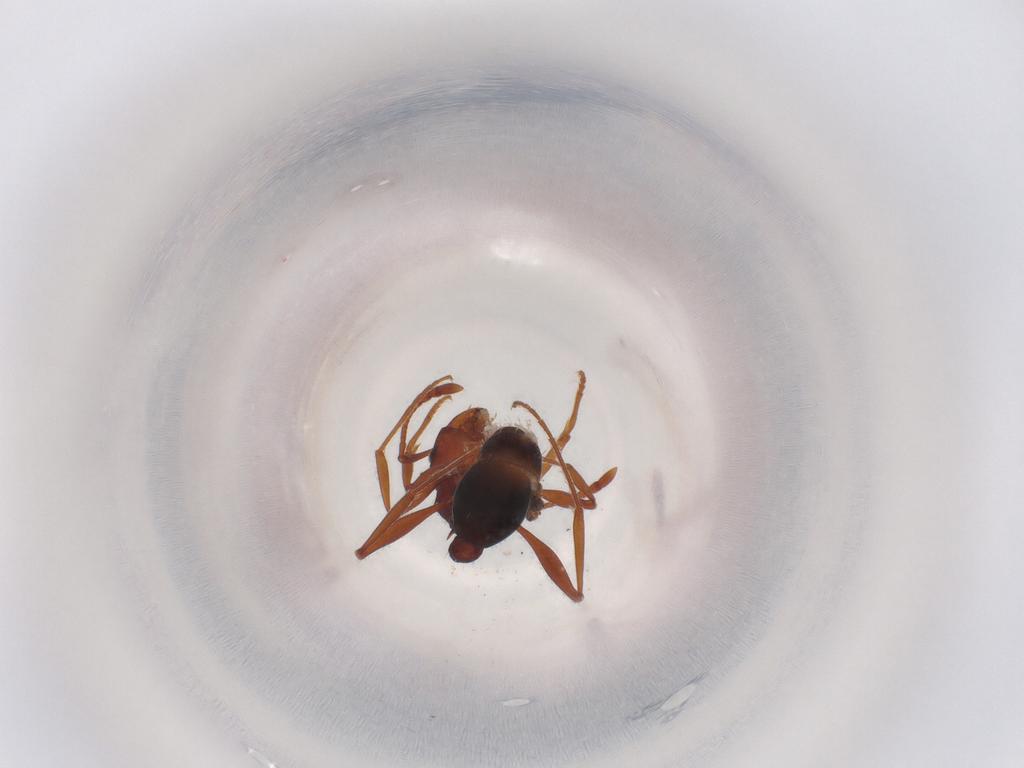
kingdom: Animalia
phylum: Arthropoda
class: Insecta
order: Hymenoptera
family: Formicidae
